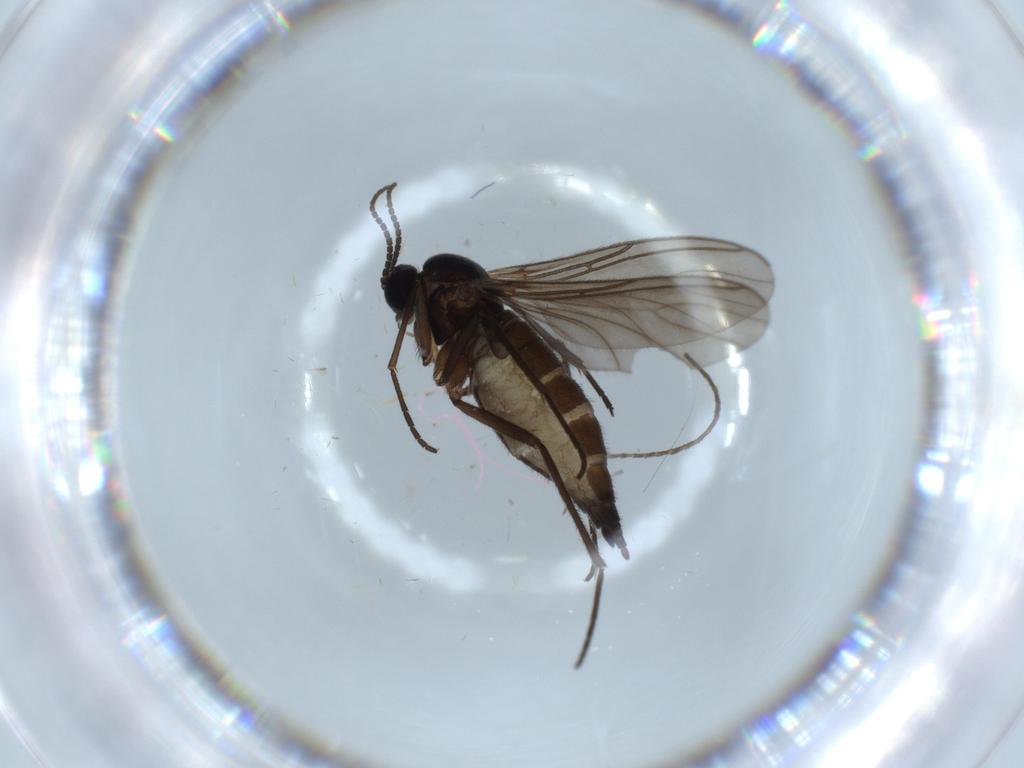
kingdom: Animalia
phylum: Arthropoda
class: Insecta
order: Diptera
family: Sciaridae
